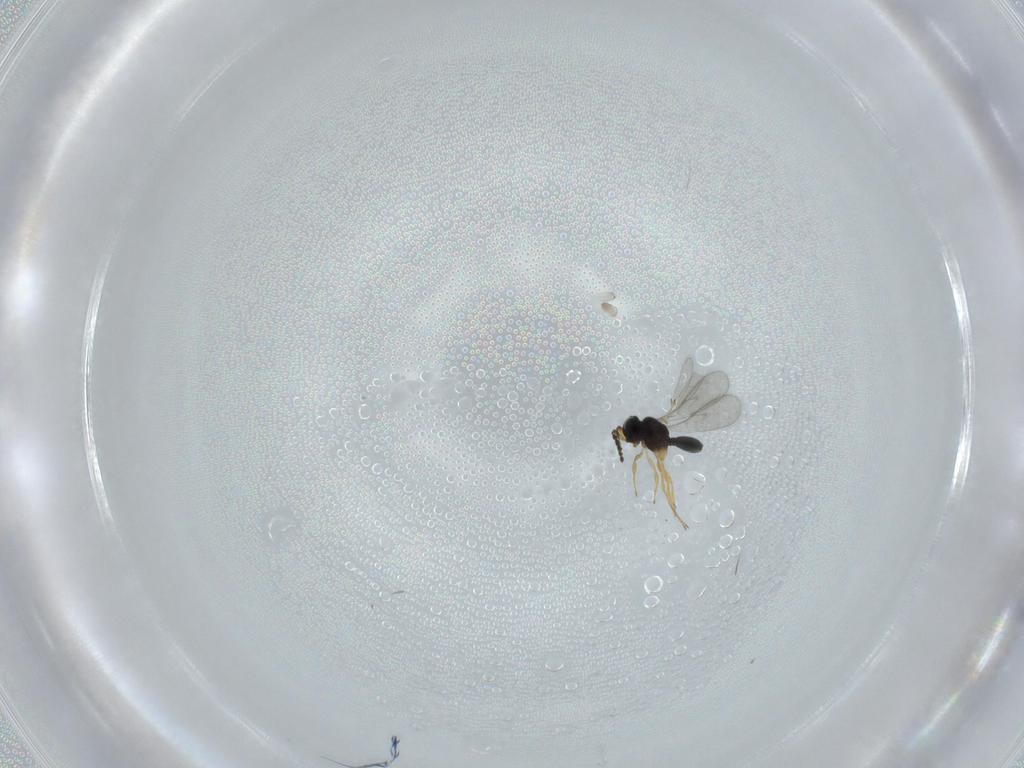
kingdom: Animalia
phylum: Arthropoda
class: Insecta
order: Hymenoptera
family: Scelionidae
